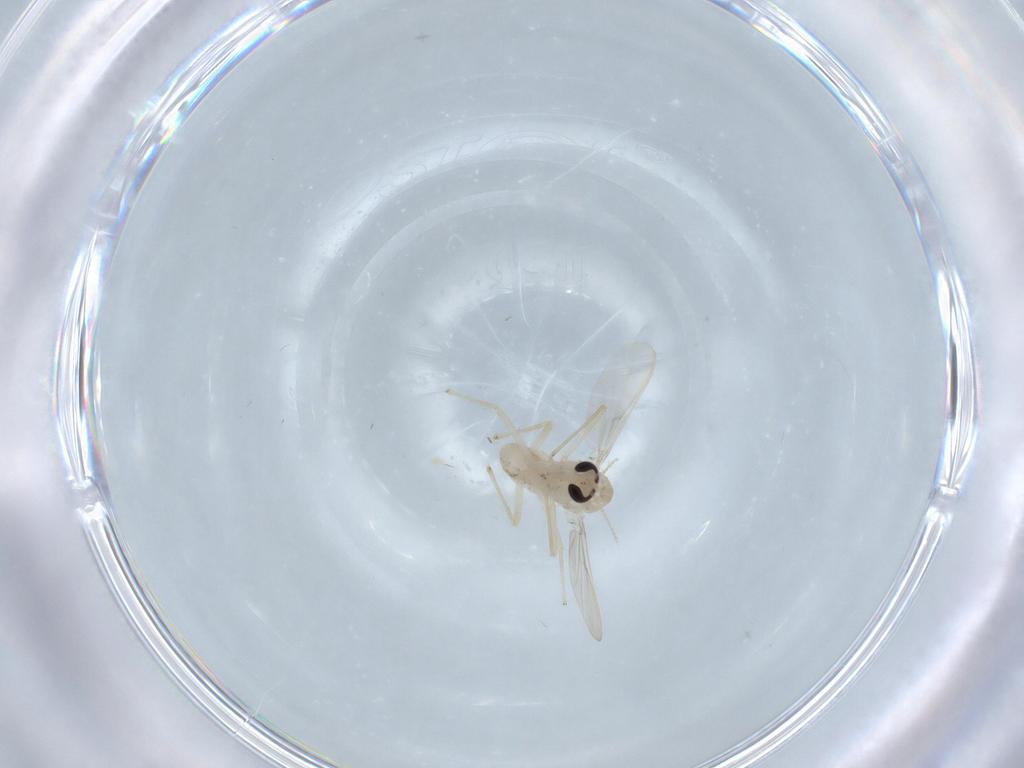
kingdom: Animalia
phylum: Arthropoda
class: Insecta
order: Diptera
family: Chironomidae
